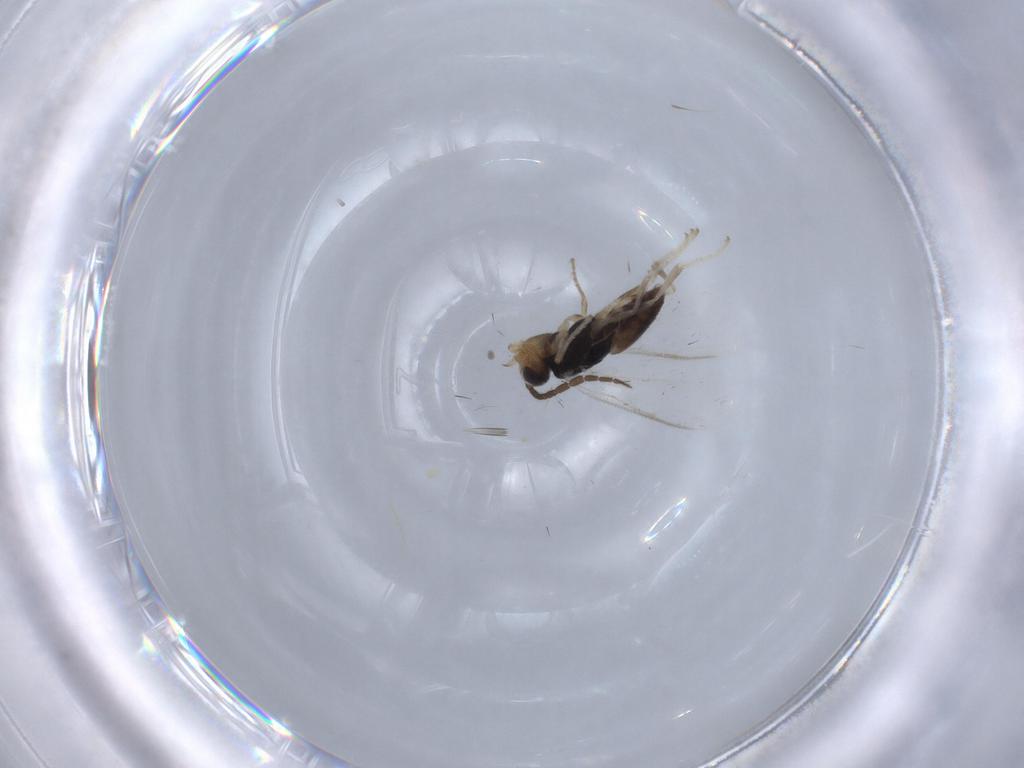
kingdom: Animalia
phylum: Arthropoda
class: Insecta
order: Hymenoptera
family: Dryinidae
